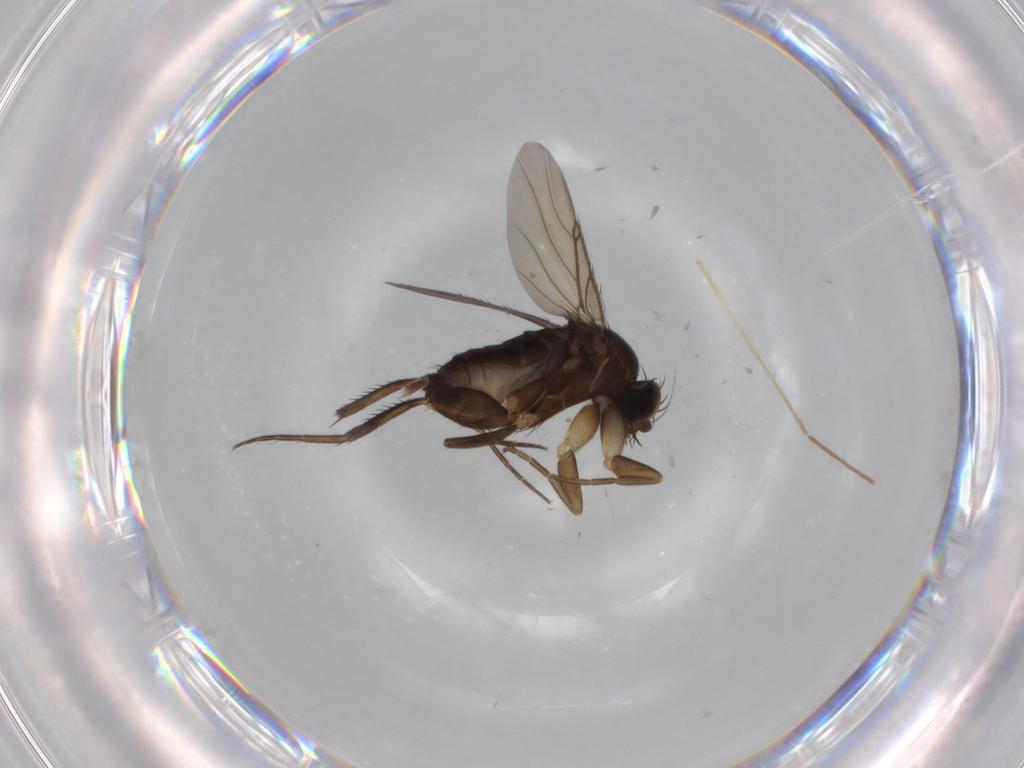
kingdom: Animalia
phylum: Arthropoda
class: Insecta
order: Diptera
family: Phoridae
